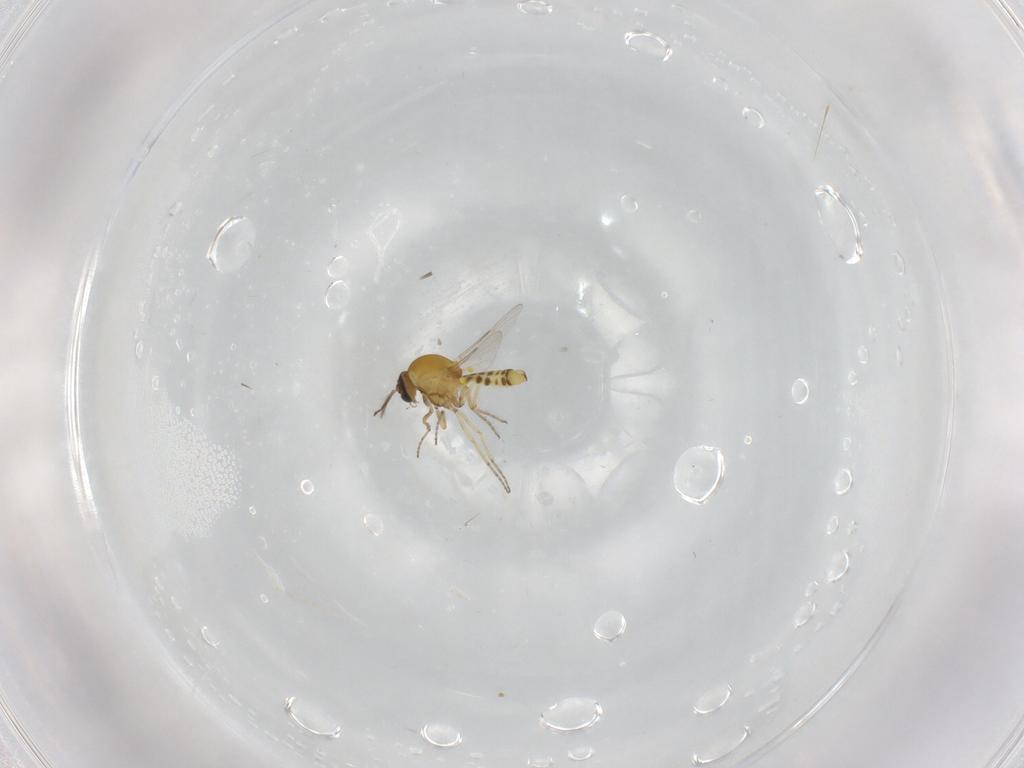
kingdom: Animalia
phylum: Arthropoda
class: Insecta
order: Diptera
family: Ceratopogonidae
